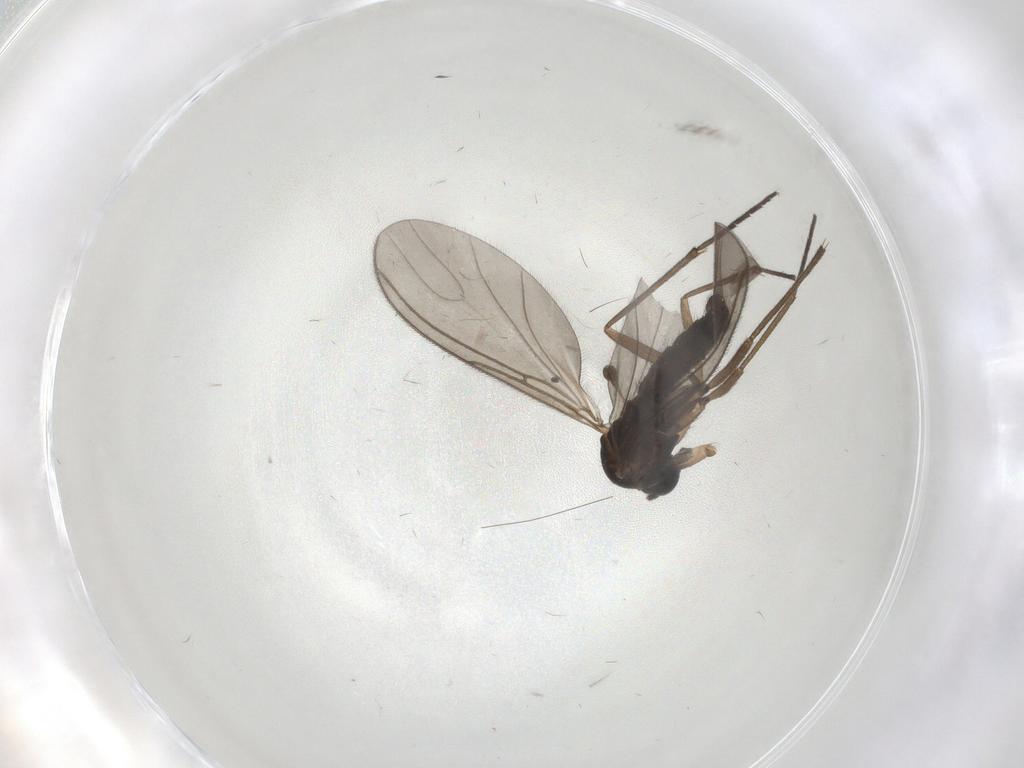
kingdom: Animalia
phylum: Arthropoda
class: Insecta
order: Diptera
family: Sciaridae
